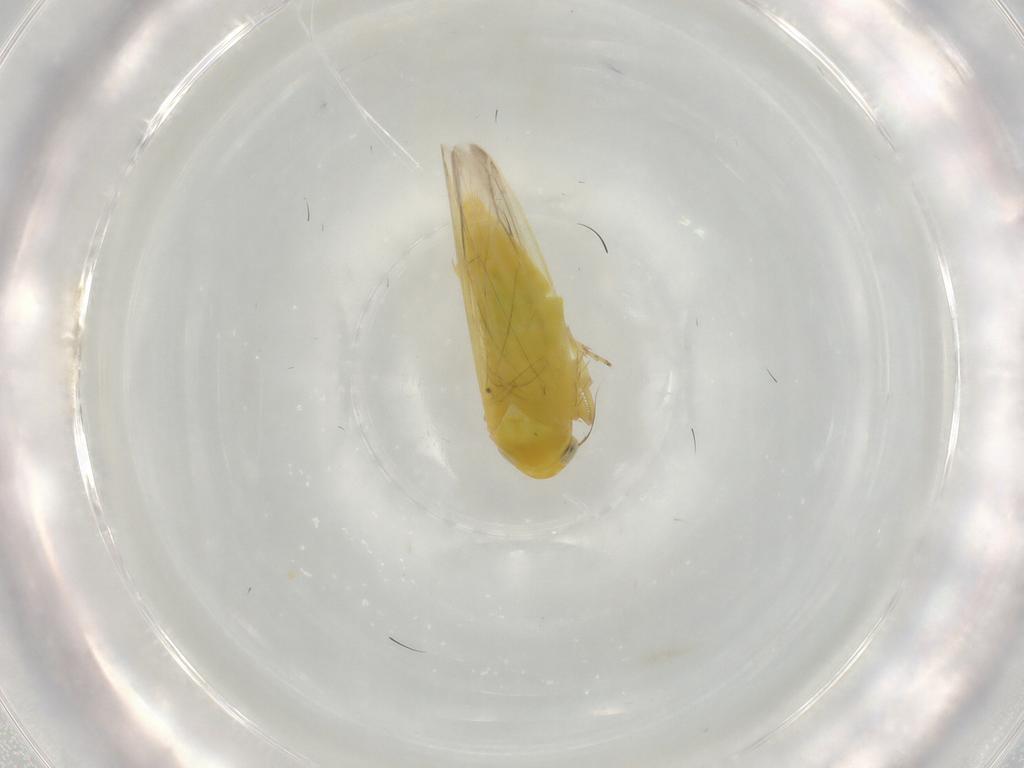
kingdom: Animalia
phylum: Arthropoda
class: Insecta
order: Hemiptera
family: Cicadellidae
